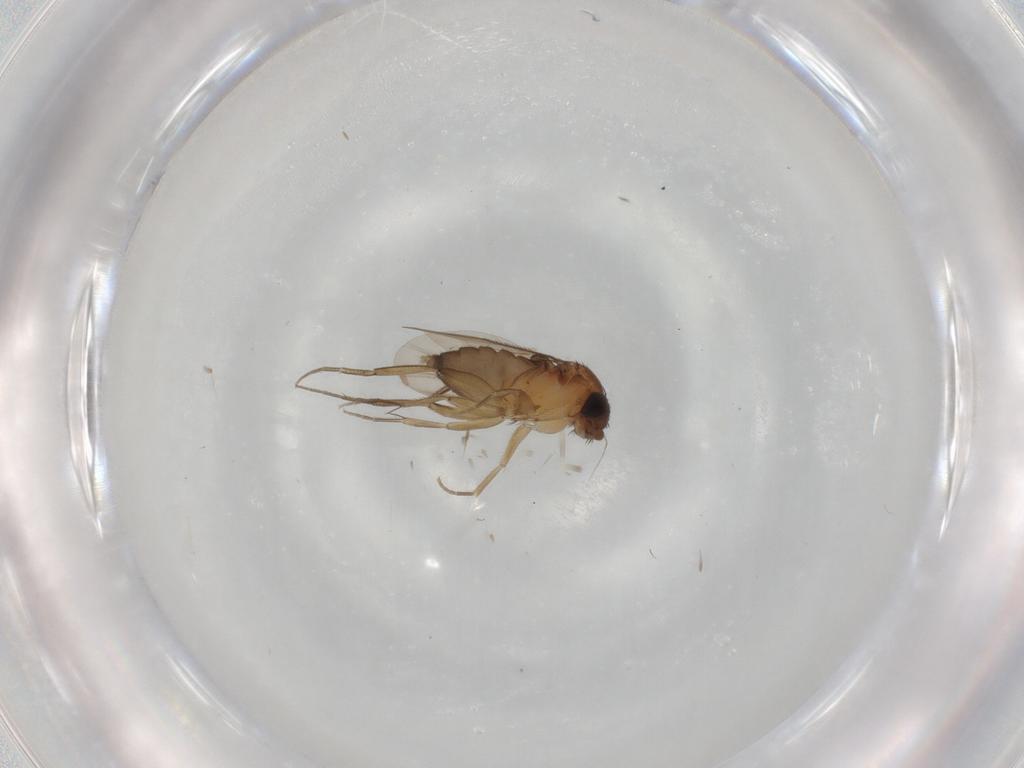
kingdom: Animalia
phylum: Arthropoda
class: Insecta
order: Diptera
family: Phoridae
